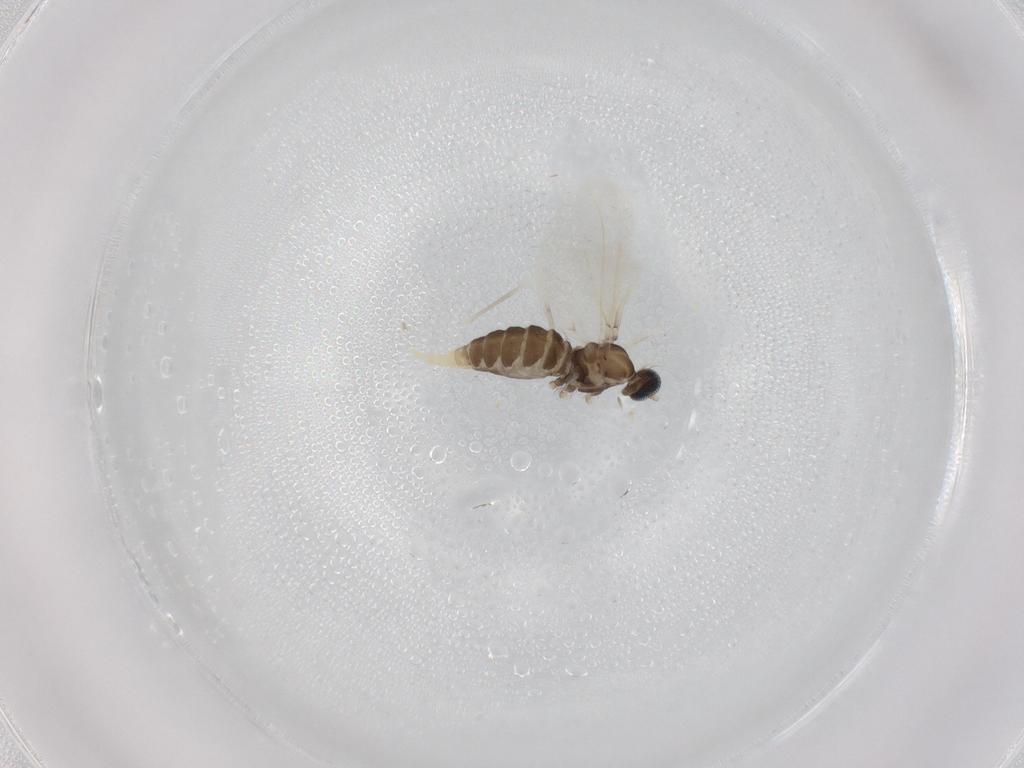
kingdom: Animalia
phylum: Arthropoda
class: Insecta
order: Diptera
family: Cecidomyiidae
